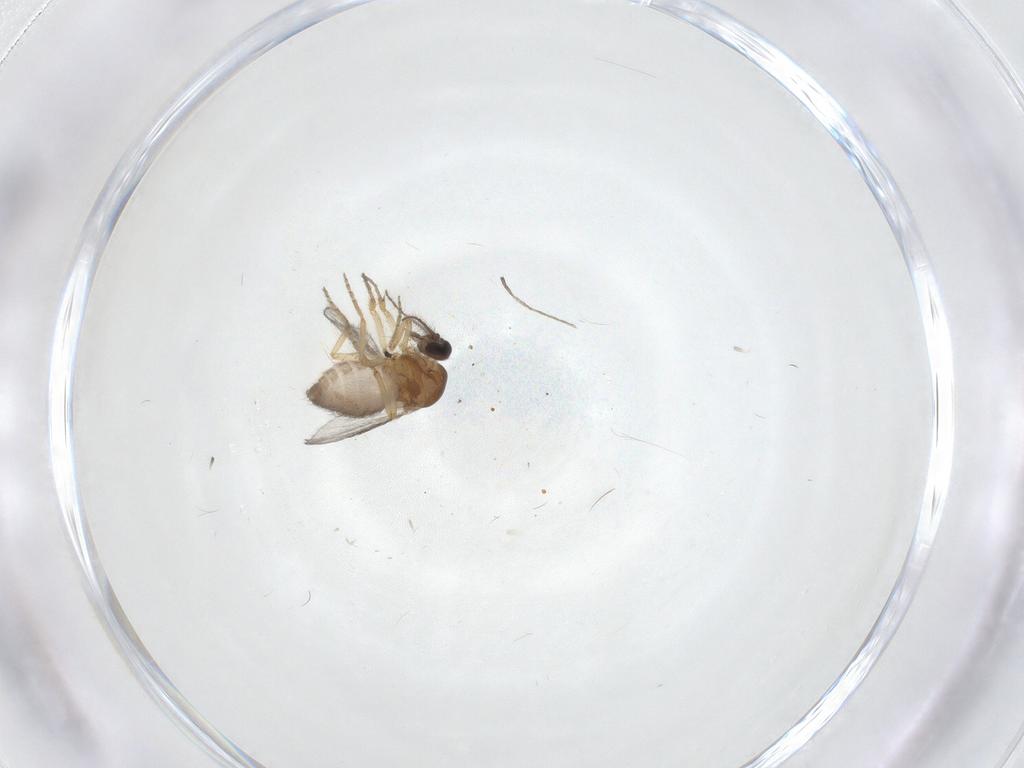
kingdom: Animalia
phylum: Arthropoda
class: Insecta
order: Diptera
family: Ceratopogonidae
